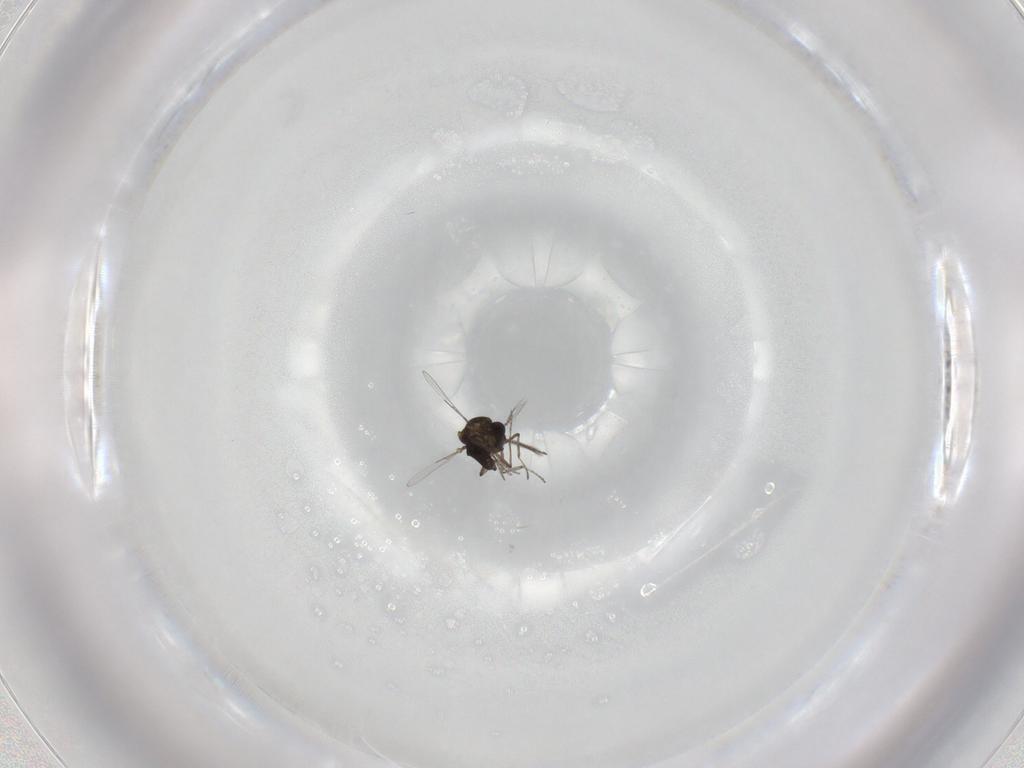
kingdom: Animalia
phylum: Arthropoda
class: Insecta
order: Diptera
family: Ceratopogonidae
